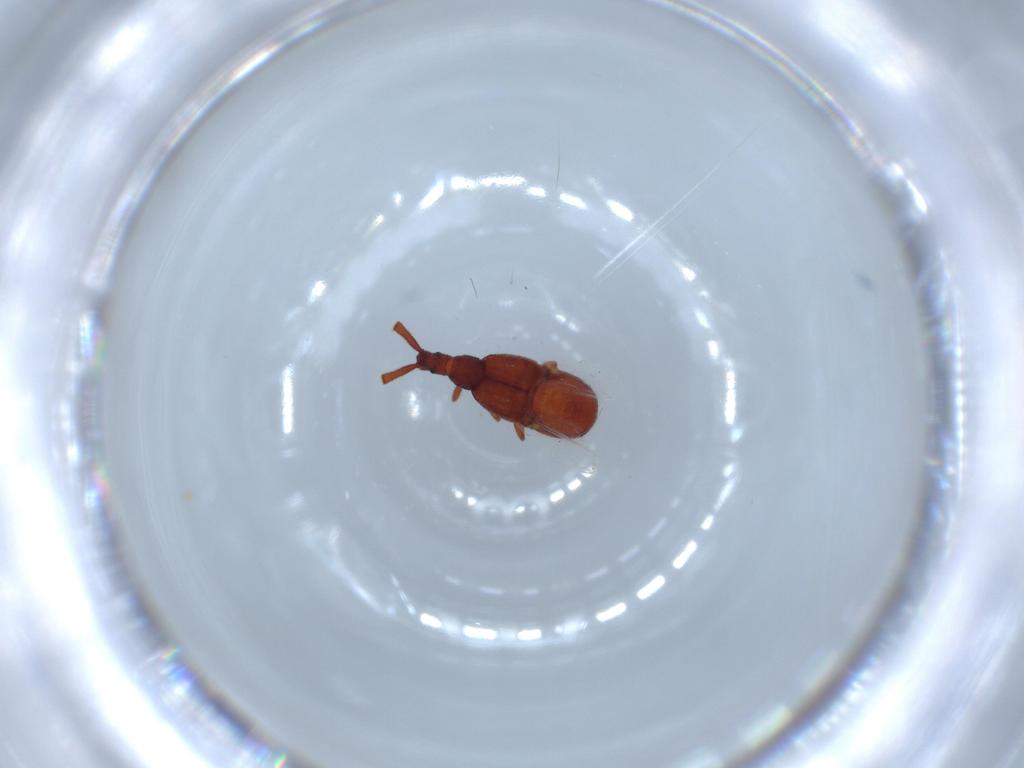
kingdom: Animalia
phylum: Arthropoda
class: Insecta
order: Coleoptera
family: Staphylinidae
